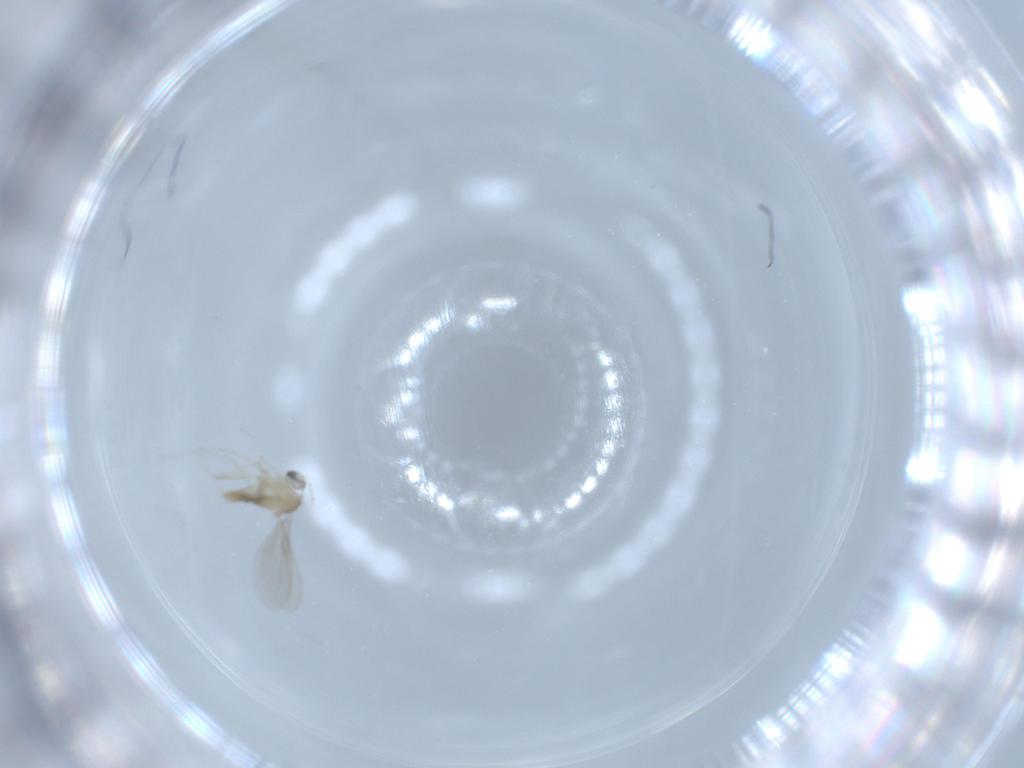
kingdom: Animalia
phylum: Arthropoda
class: Insecta
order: Diptera
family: Cecidomyiidae
